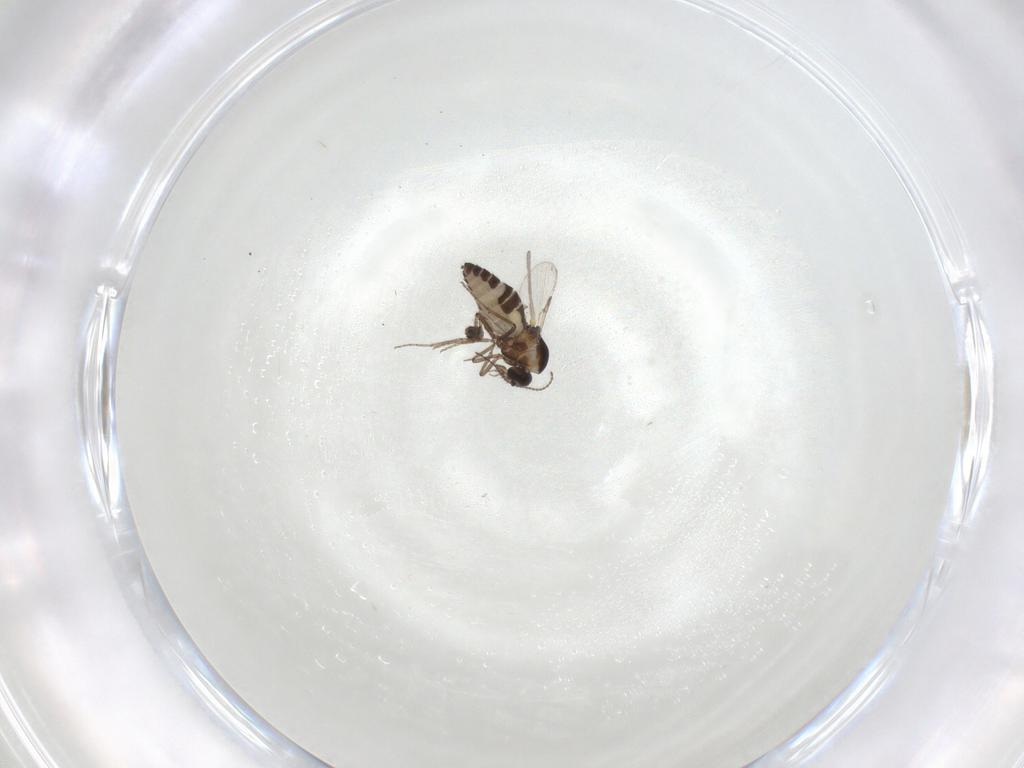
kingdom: Animalia
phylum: Arthropoda
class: Insecta
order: Diptera
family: Psychodidae
